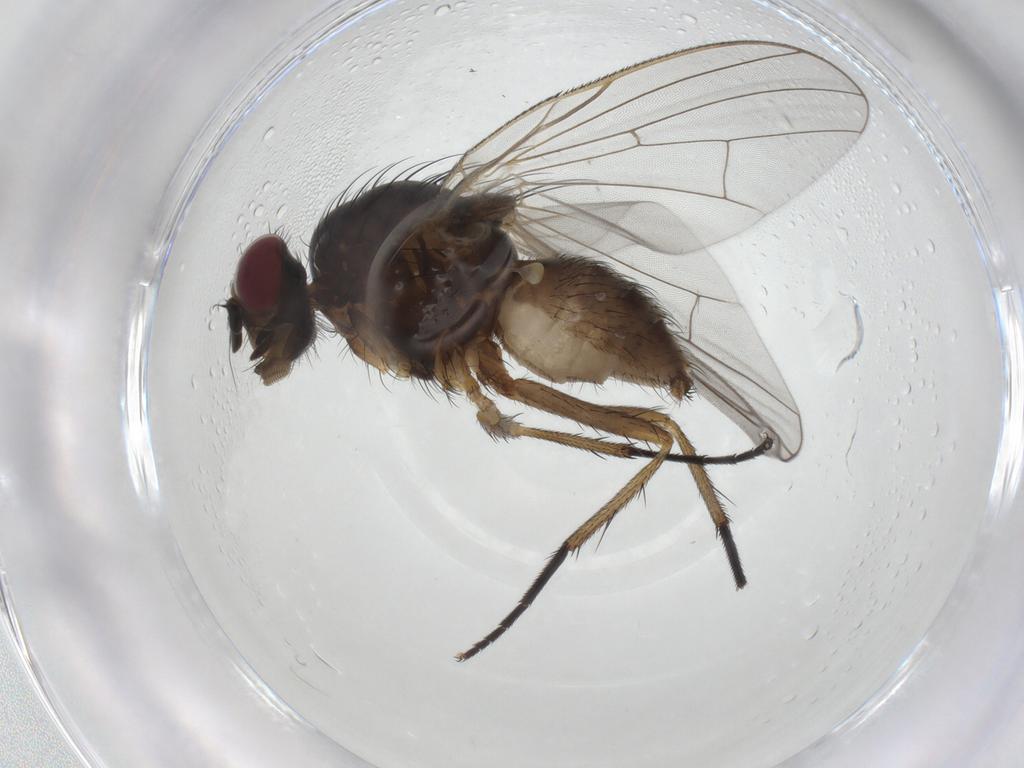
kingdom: Animalia
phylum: Arthropoda
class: Insecta
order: Diptera
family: Anthomyiidae
